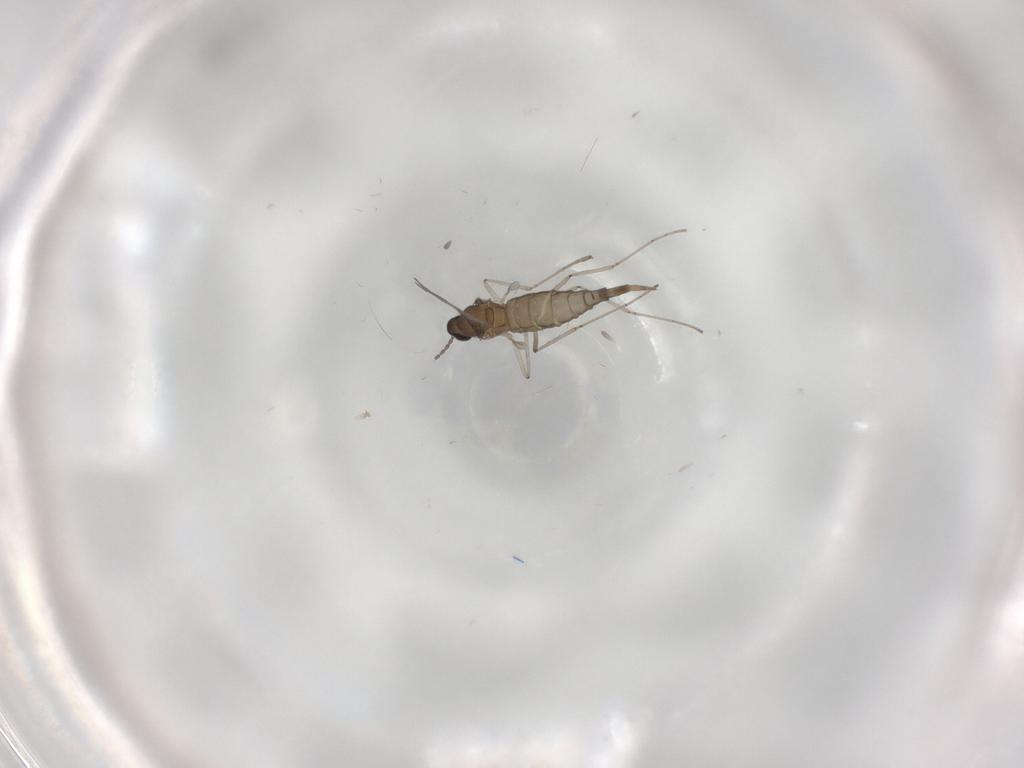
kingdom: Animalia
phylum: Arthropoda
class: Insecta
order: Diptera
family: Cecidomyiidae
